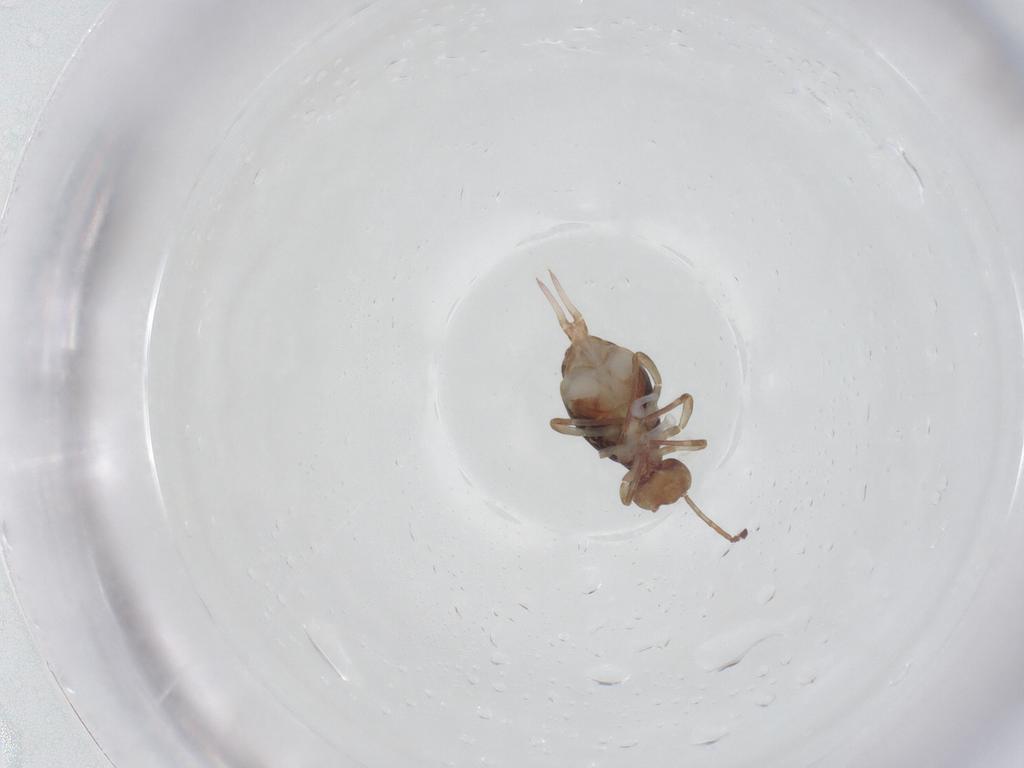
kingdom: Animalia
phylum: Arthropoda
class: Collembola
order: Symphypleona
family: Dicyrtomidae
